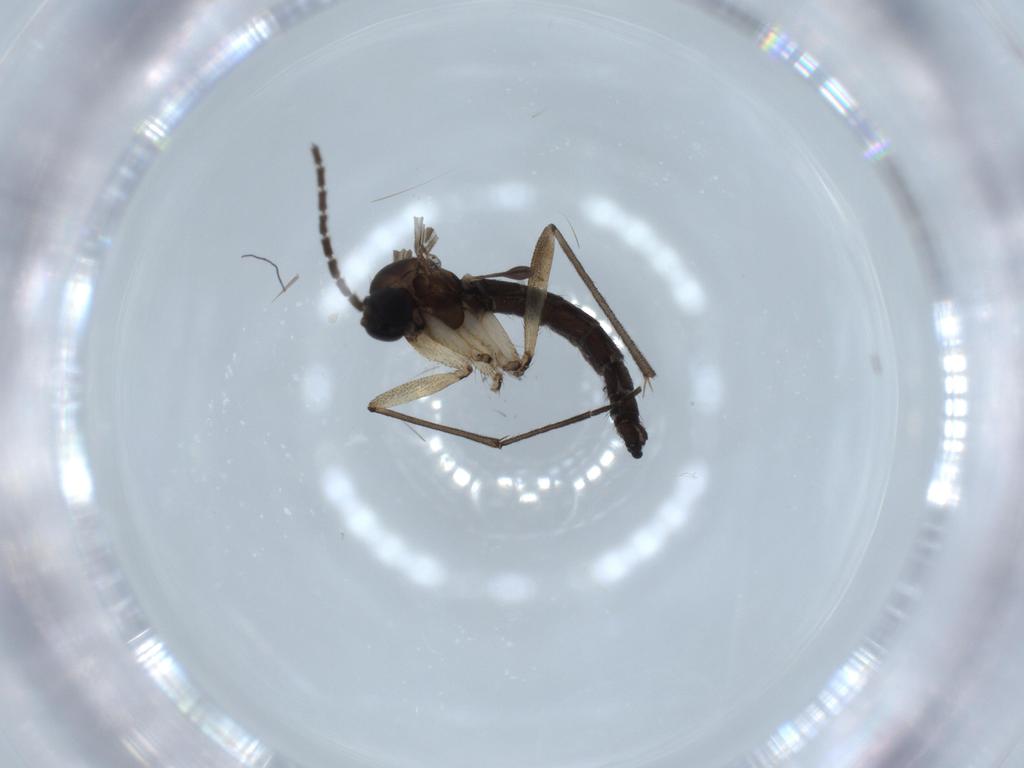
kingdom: Animalia
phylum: Arthropoda
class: Insecta
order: Diptera
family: Sciaridae
